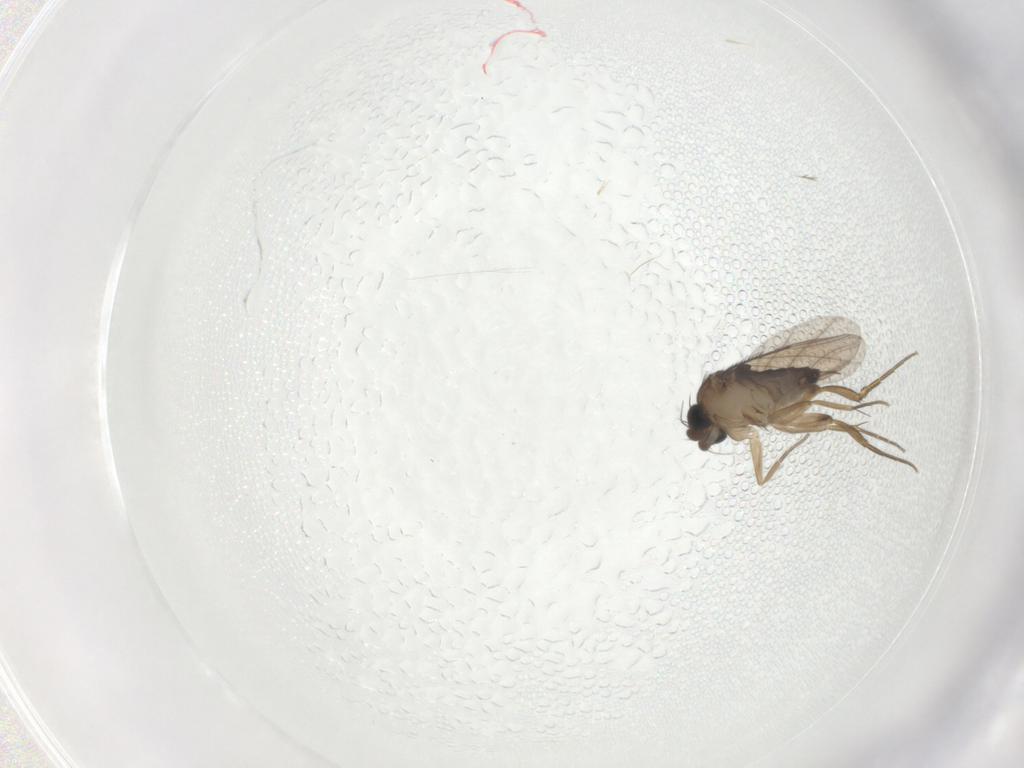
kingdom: Animalia
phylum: Arthropoda
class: Insecta
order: Diptera
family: Phoridae
